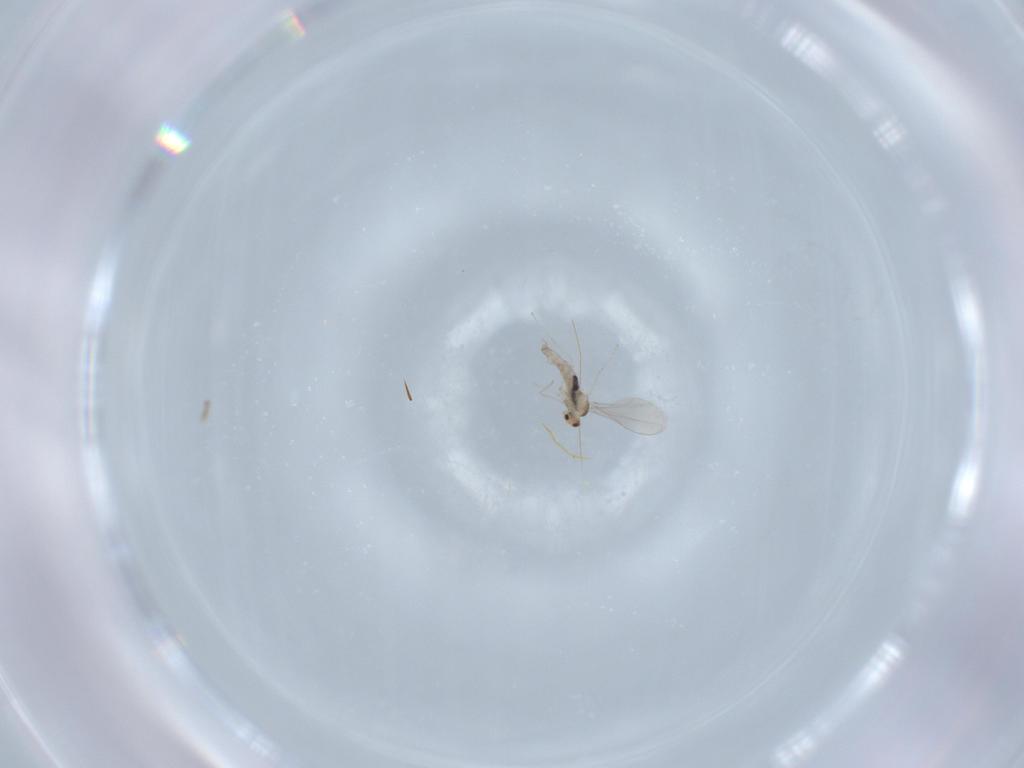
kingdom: Animalia
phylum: Arthropoda
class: Insecta
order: Diptera
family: Cecidomyiidae
